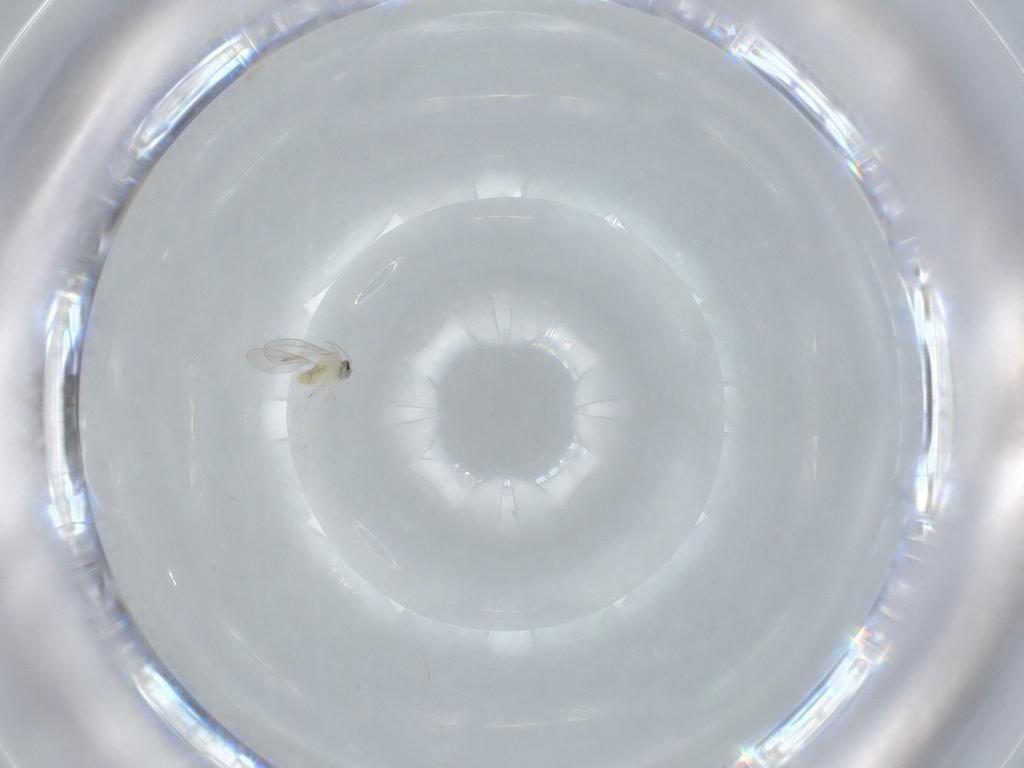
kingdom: Animalia
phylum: Arthropoda
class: Insecta
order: Diptera
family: Cecidomyiidae
